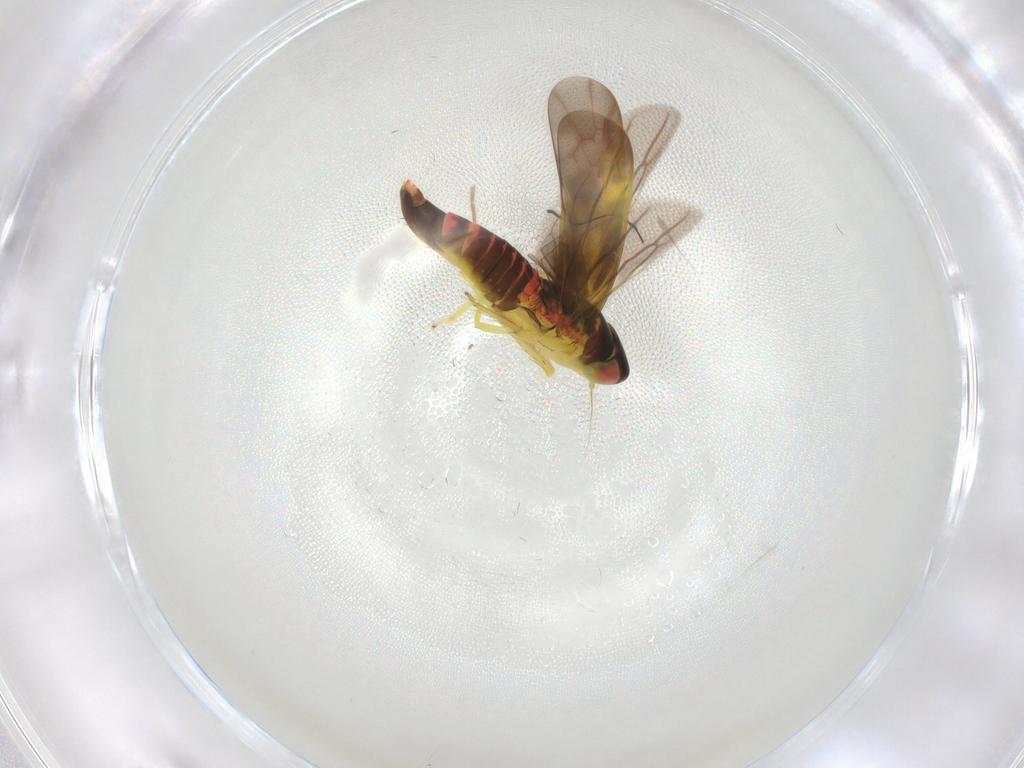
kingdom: Animalia
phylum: Arthropoda
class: Insecta
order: Hemiptera
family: Cicadellidae
